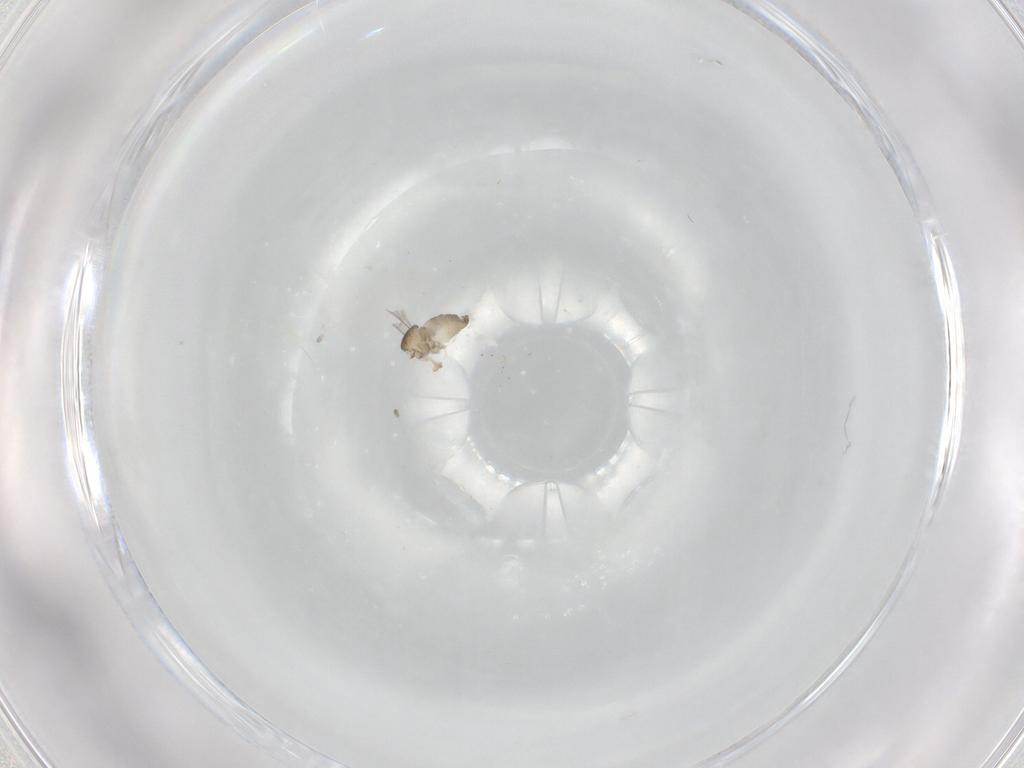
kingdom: Animalia
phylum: Arthropoda
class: Insecta
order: Diptera
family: Cecidomyiidae
